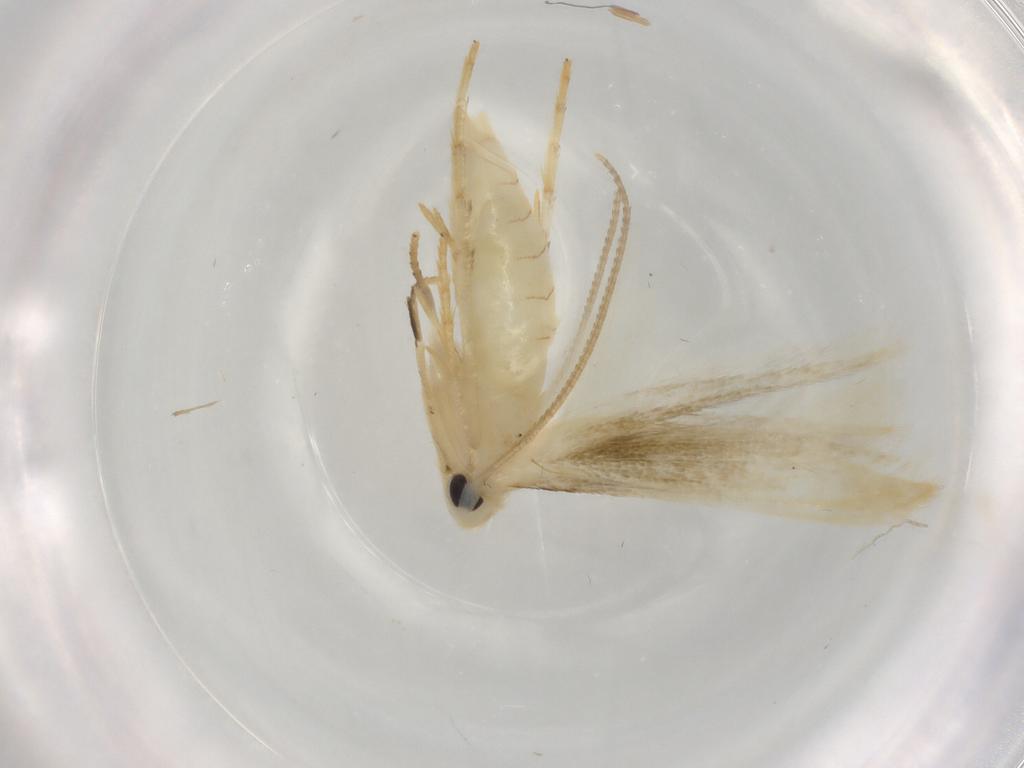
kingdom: Animalia
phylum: Arthropoda
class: Insecta
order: Lepidoptera
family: Lyonetiidae
